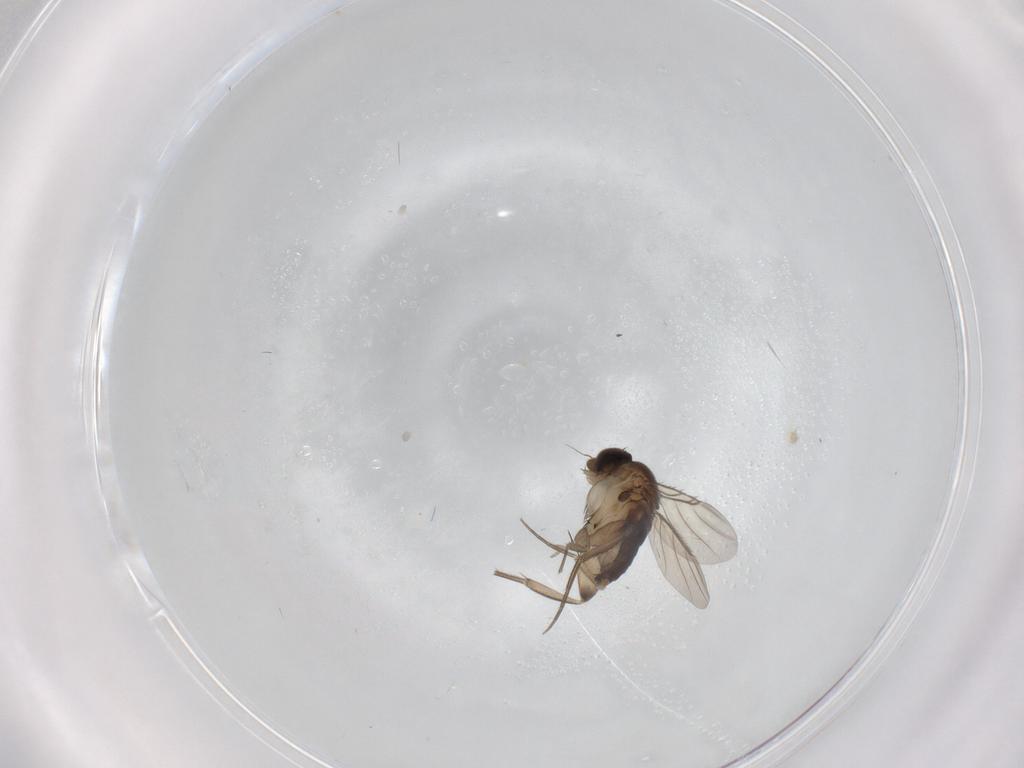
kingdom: Animalia
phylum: Arthropoda
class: Insecta
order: Diptera
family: Phoridae
